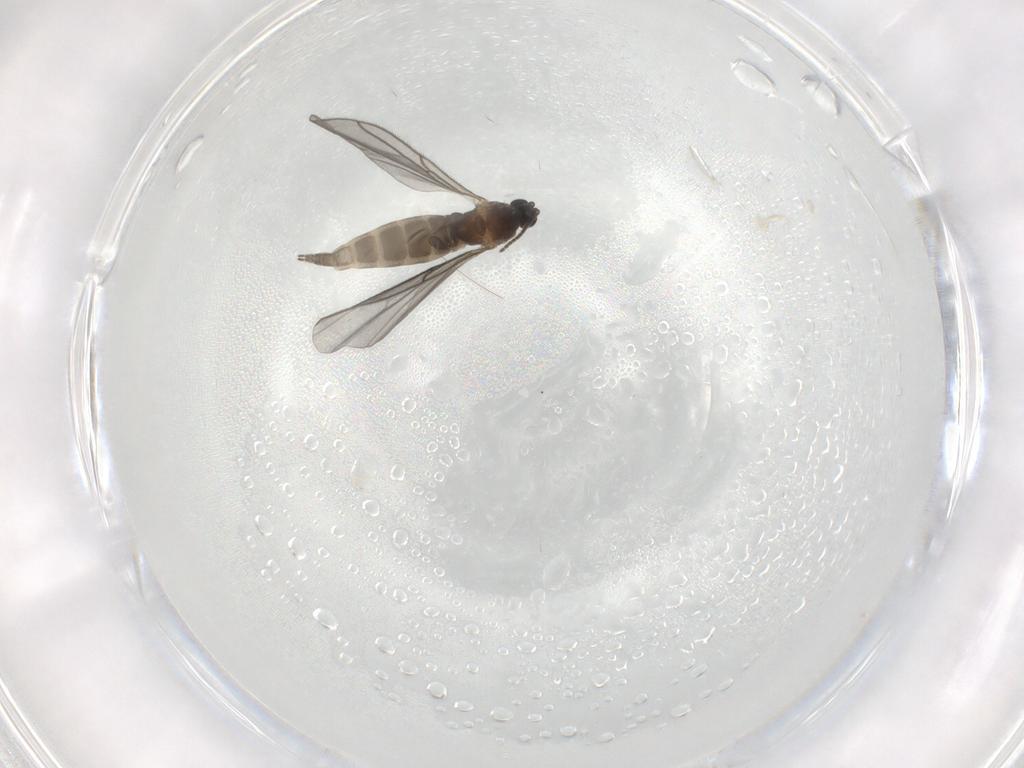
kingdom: Animalia
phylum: Arthropoda
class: Insecta
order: Diptera
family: Sciaridae
